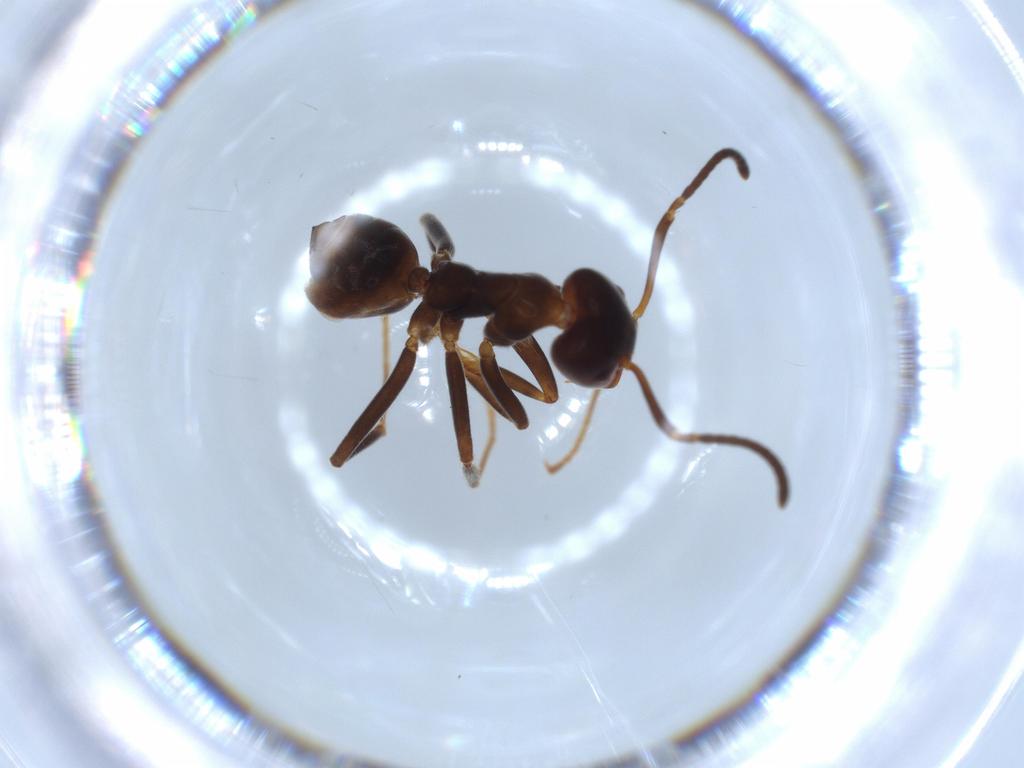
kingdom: Animalia
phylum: Arthropoda
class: Insecta
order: Hymenoptera
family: Formicidae
